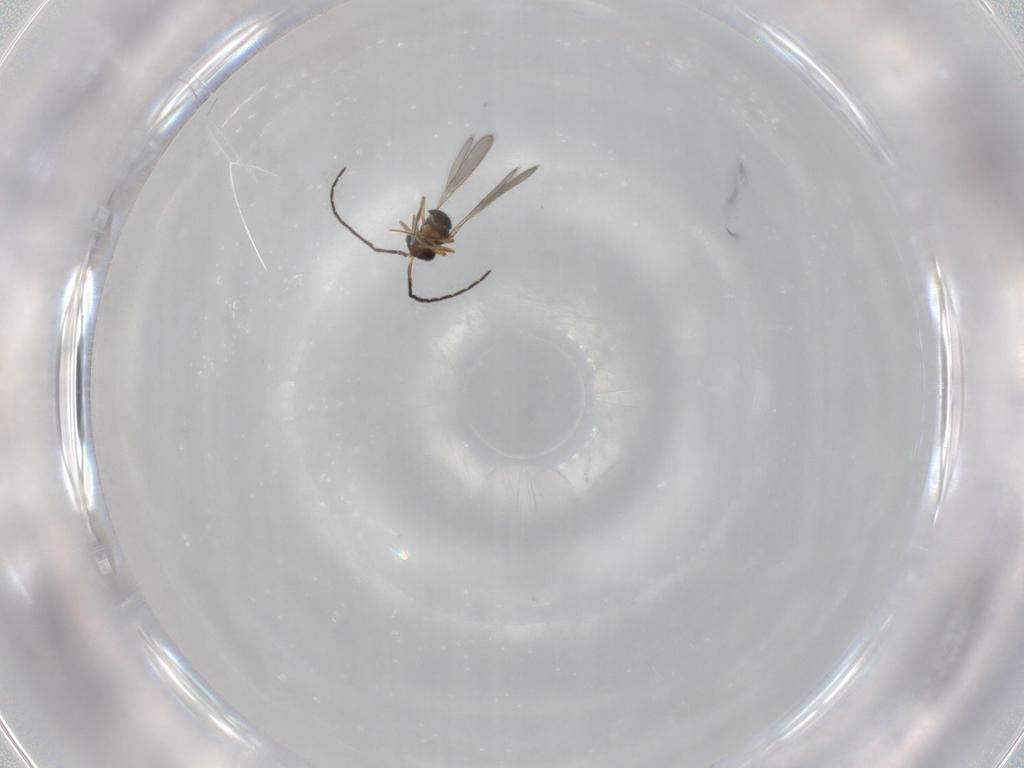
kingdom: Animalia
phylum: Arthropoda
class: Insecta
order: Hymenoptera
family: Scelionidae
